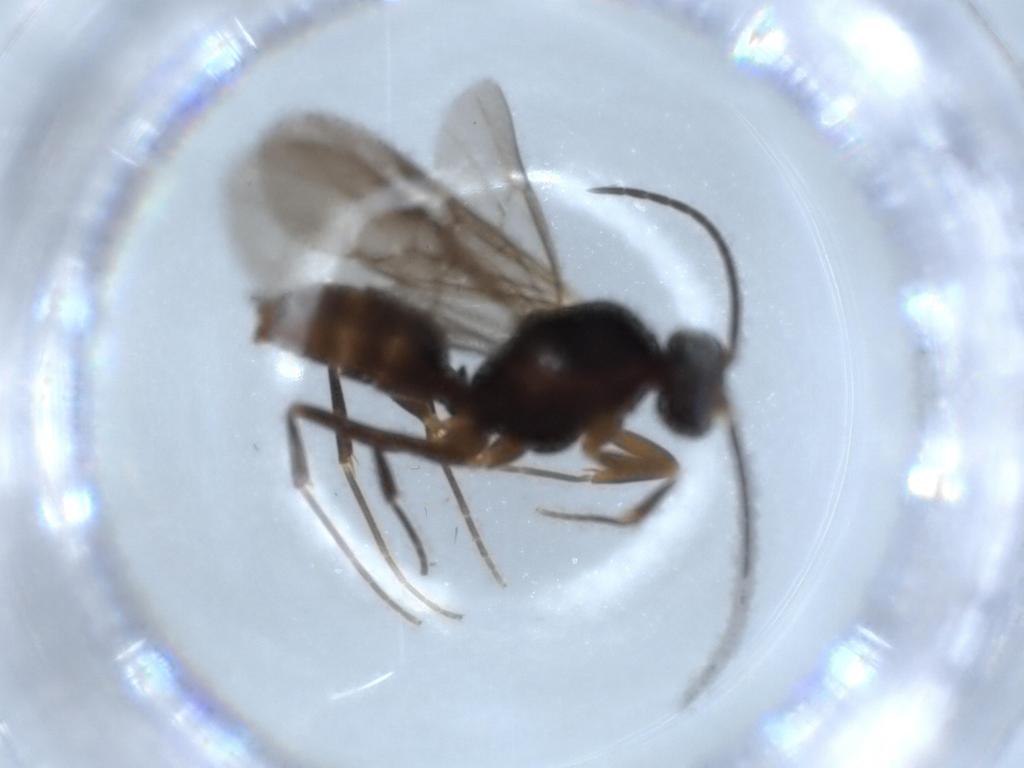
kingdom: Animalia
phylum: Arthropoda
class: Insecta
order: Hymenoptera
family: Formicidae
